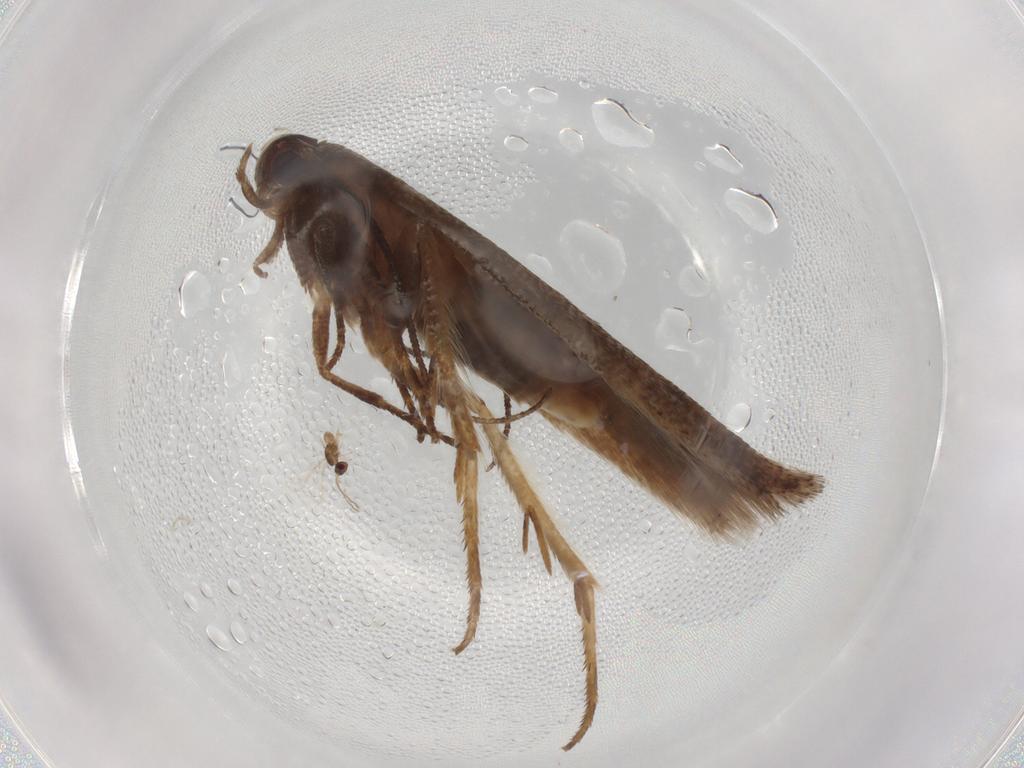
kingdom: Animalia
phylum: Arthropoda
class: Insecta
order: Lepidoptera
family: Gelechiidae
